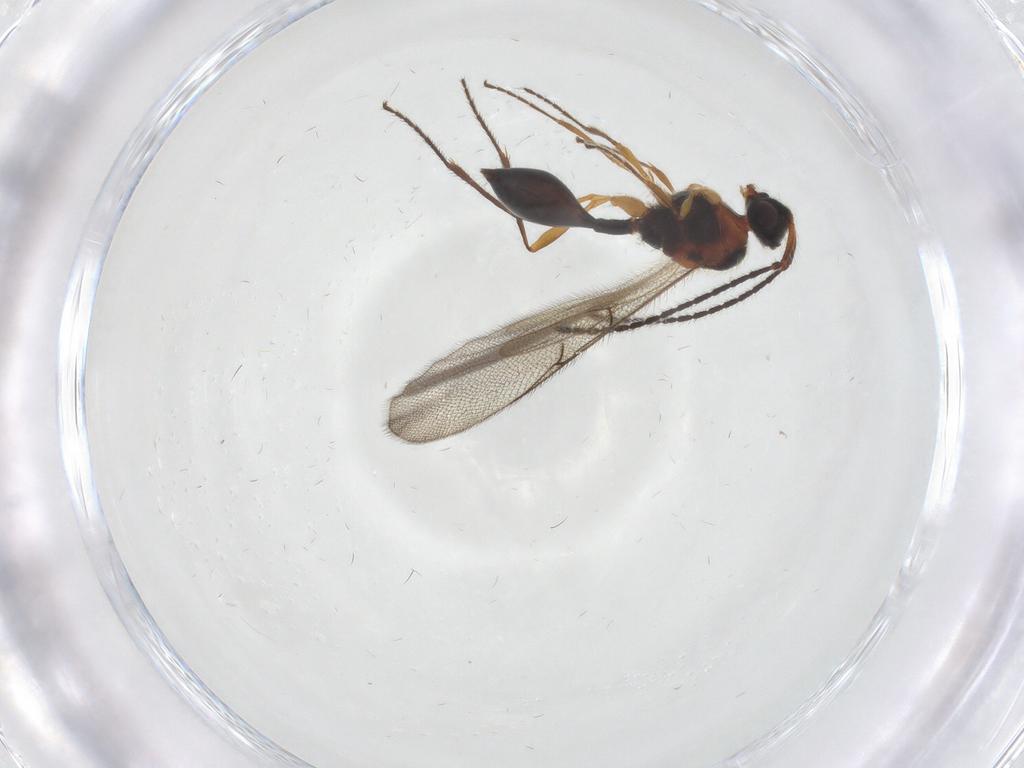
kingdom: Animalia
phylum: Arthropoda
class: Insecta
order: Hymenoptera
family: Diapriidae
